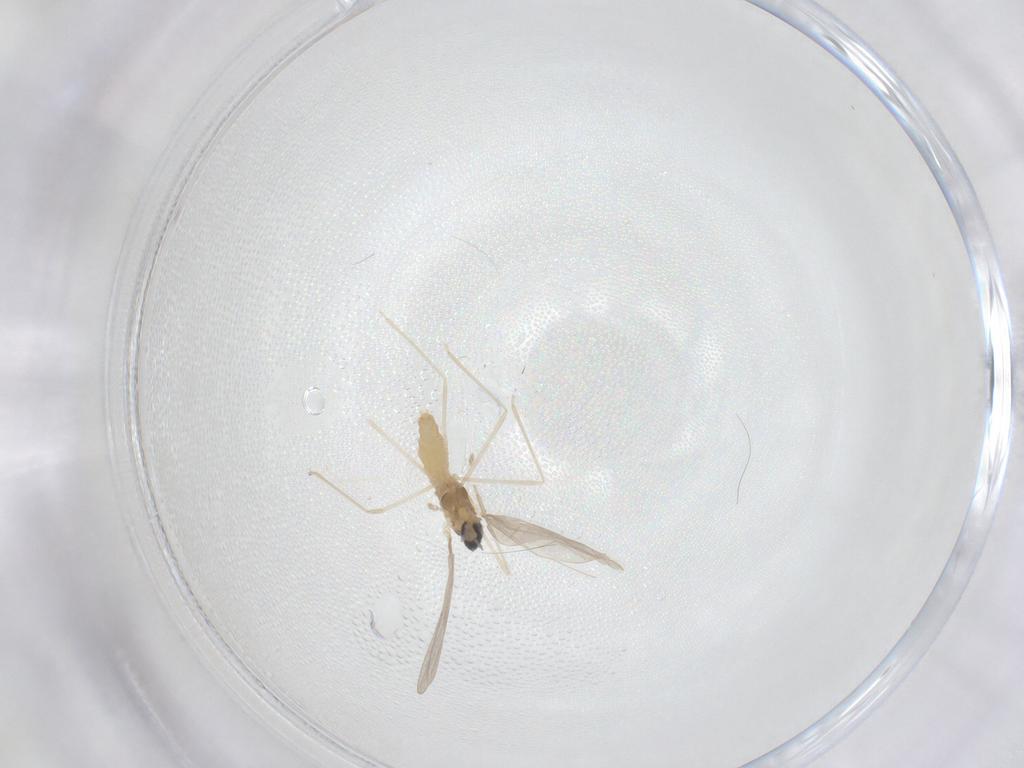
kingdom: Animalia
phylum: Arthropoda
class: Insecta
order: Diptera
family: Cecidomyiidae
